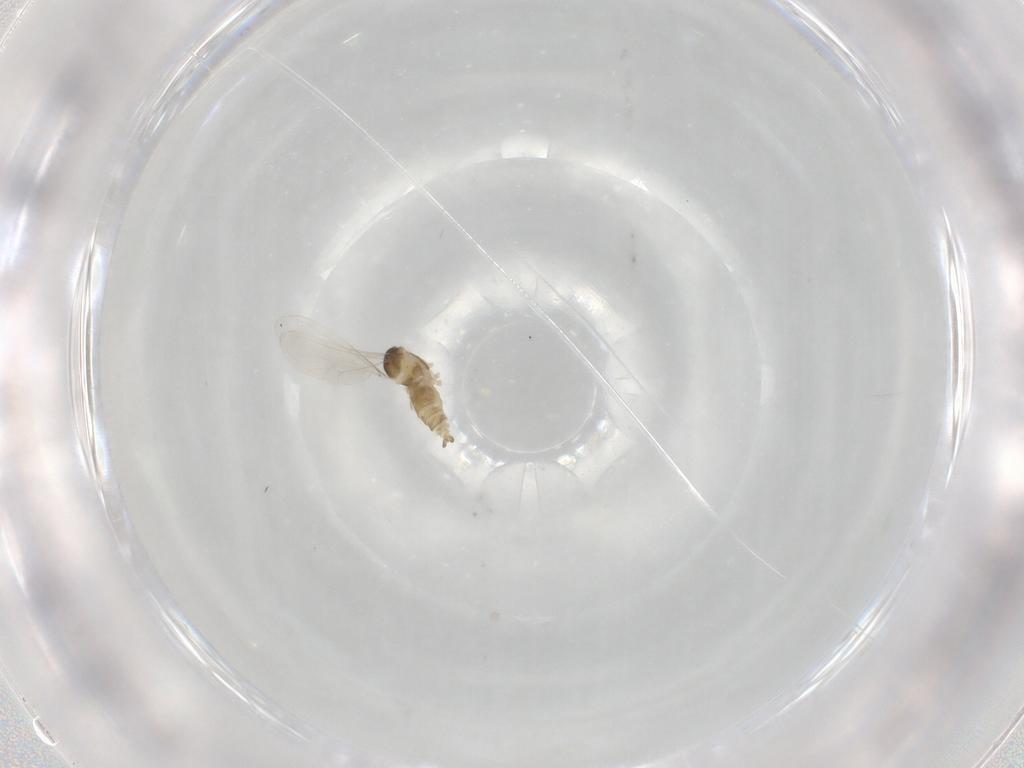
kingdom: Animalia
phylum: Arthropoda
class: Insecta
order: Diptera
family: Cecidomyiidae
